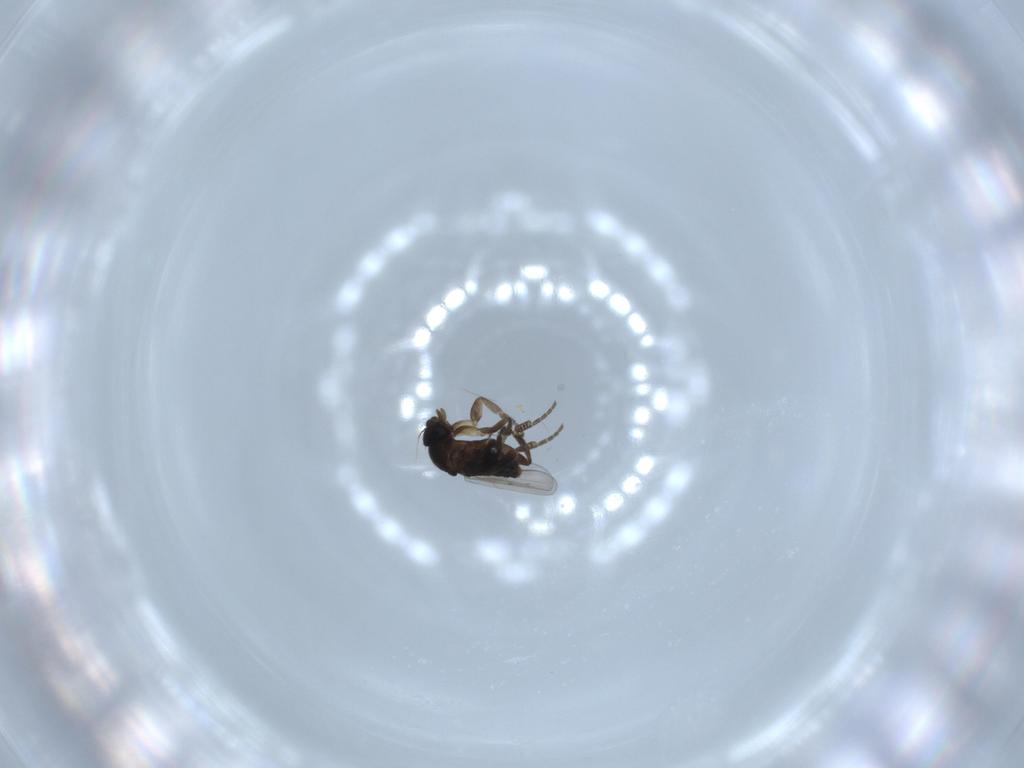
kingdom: Animalia
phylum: Arthropoda
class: Insecta
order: Diptera
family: Phoridae
